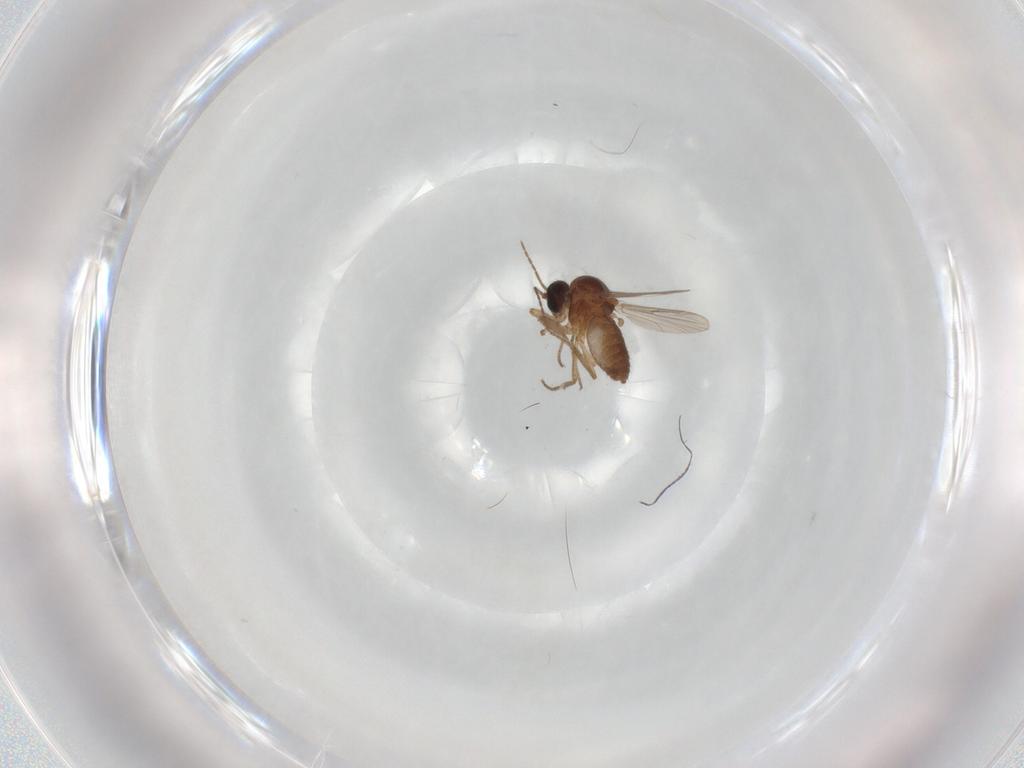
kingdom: Animalia
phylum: Arthropoda
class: Insecta
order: Diptera
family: Ceratopogonidae
